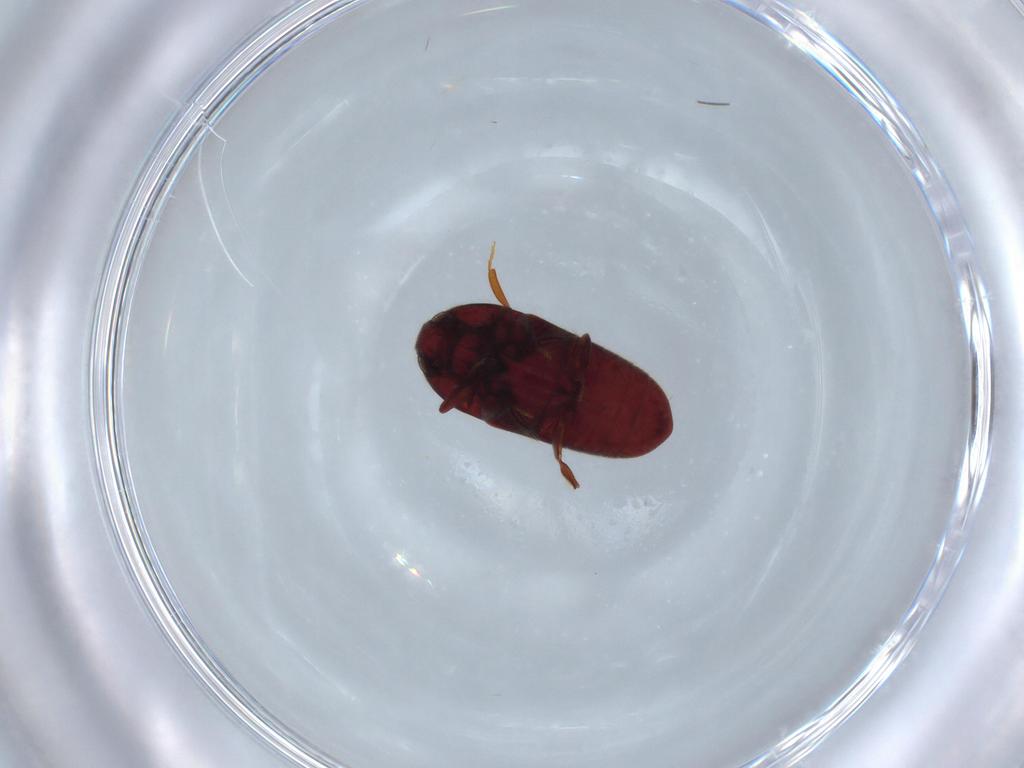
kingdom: Animalia
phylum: Arthropoda
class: Insecta
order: Coleoptera
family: Throscidae
